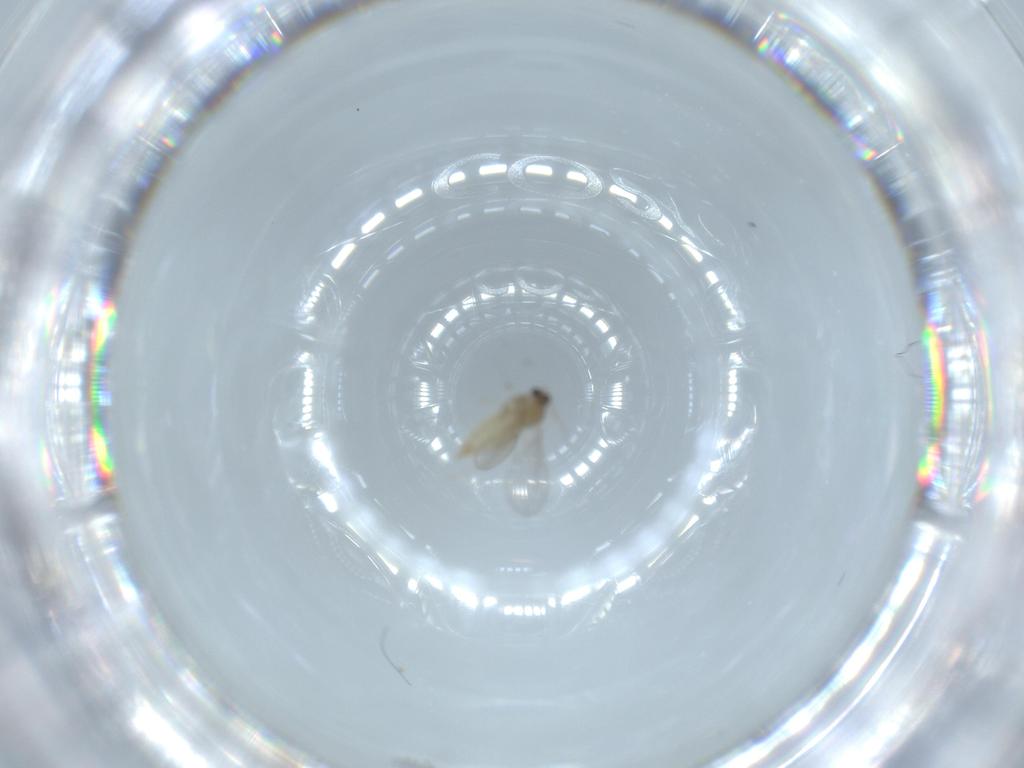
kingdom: Animalia
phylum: Arthropoda
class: Insecta
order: Diptera
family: Cecidomyiidae
